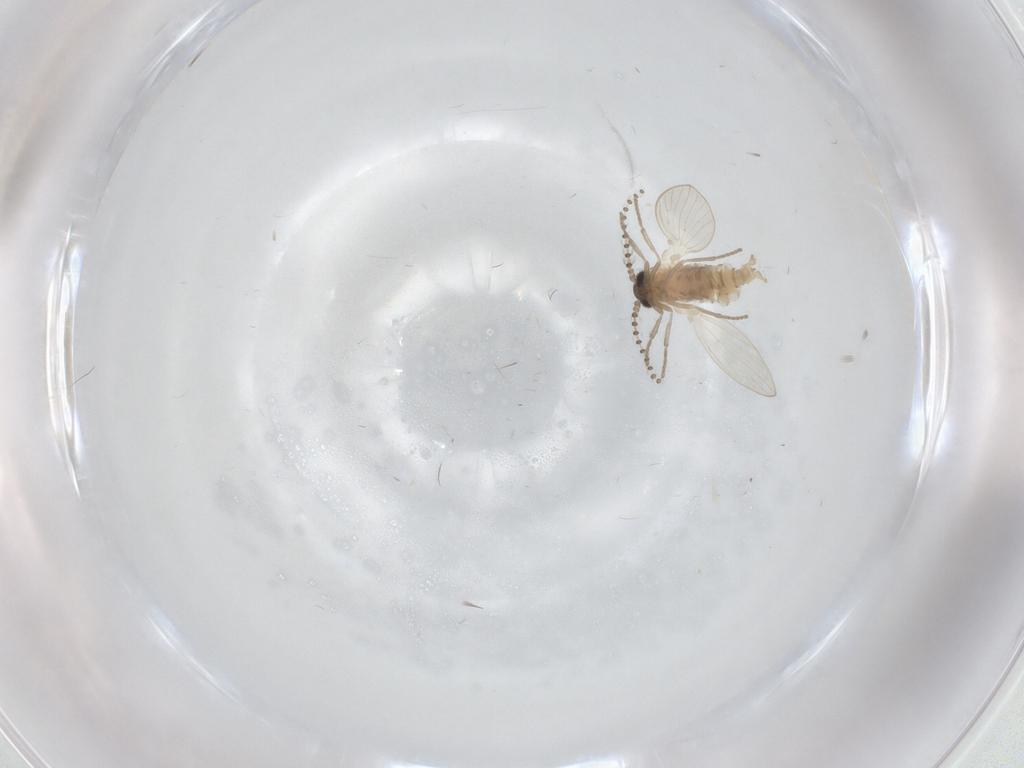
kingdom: Animalia
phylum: Arthropoda
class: Insecta
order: Diptera
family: Psychodidae
